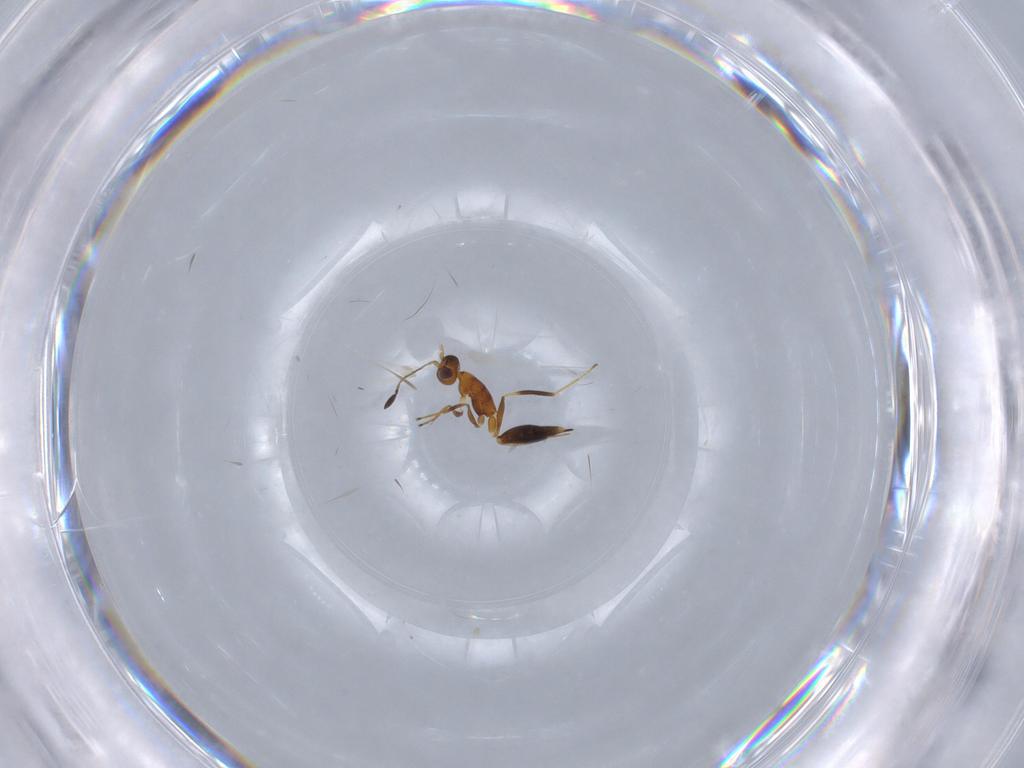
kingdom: Animalia
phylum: Arthropoda
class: Insecta
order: Hymenoptera
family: Mymaridae
